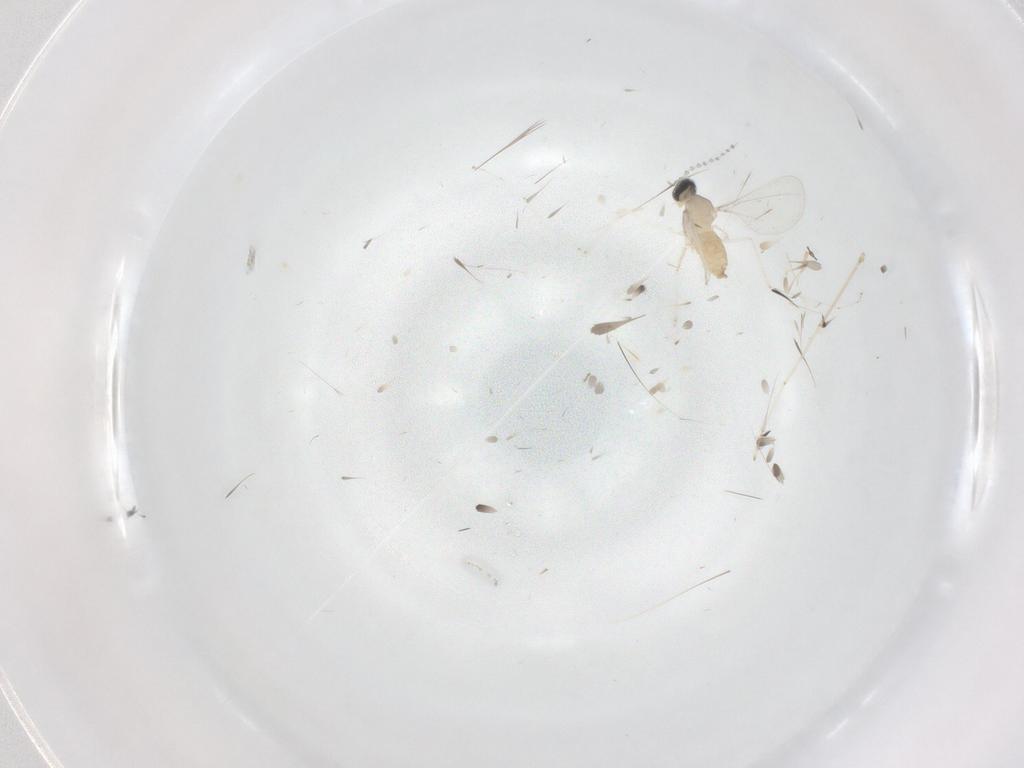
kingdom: Animalia
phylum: Arthropoda
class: Insecta
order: Diptera
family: Cecidomyiidae
